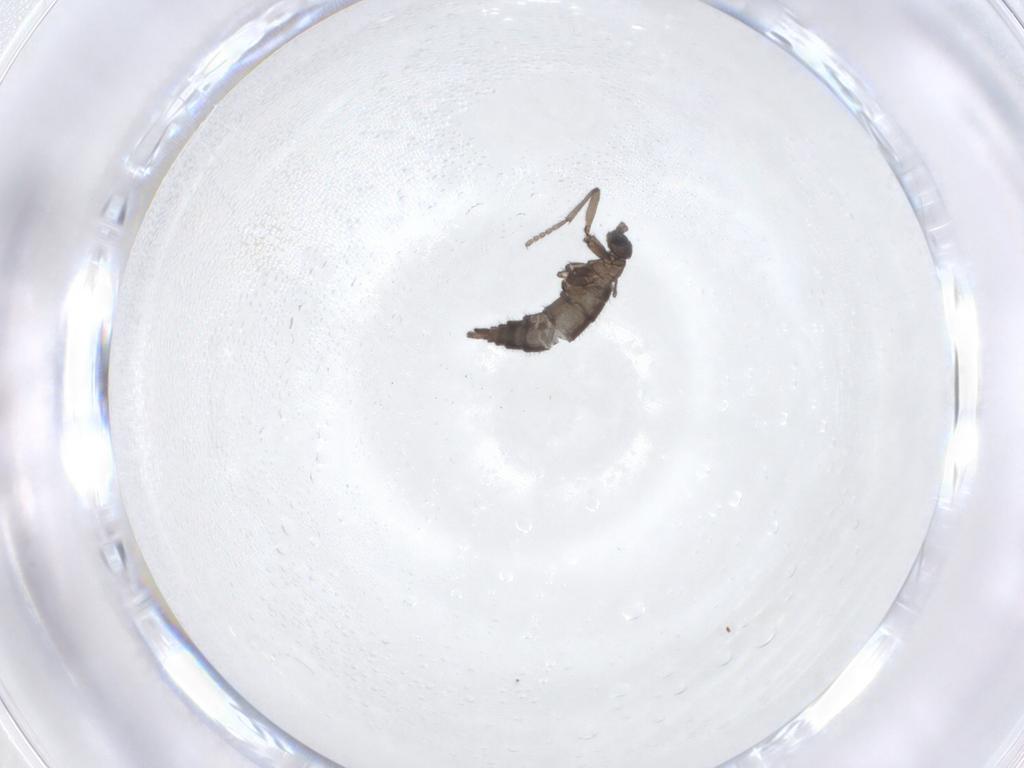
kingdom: Animalia
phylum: Arthropoda
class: Insecta
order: Diptera
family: Sciaridae
